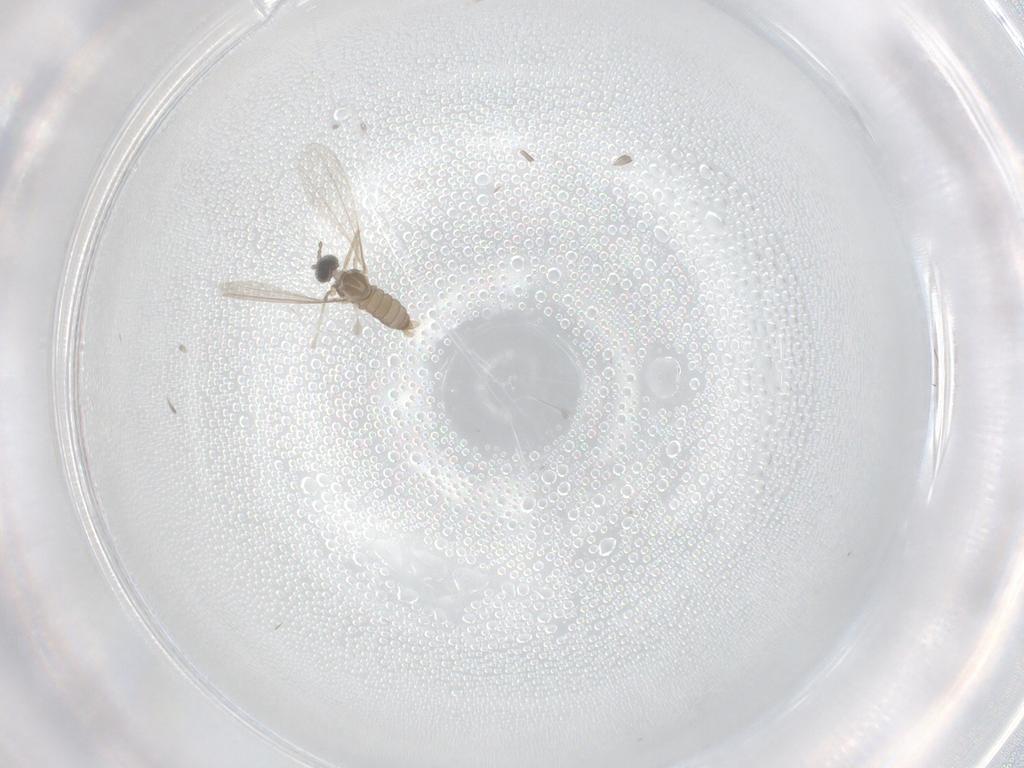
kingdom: Animalia
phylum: Arthropoda
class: Insecta
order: Diptera
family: Cecidomyiidae
